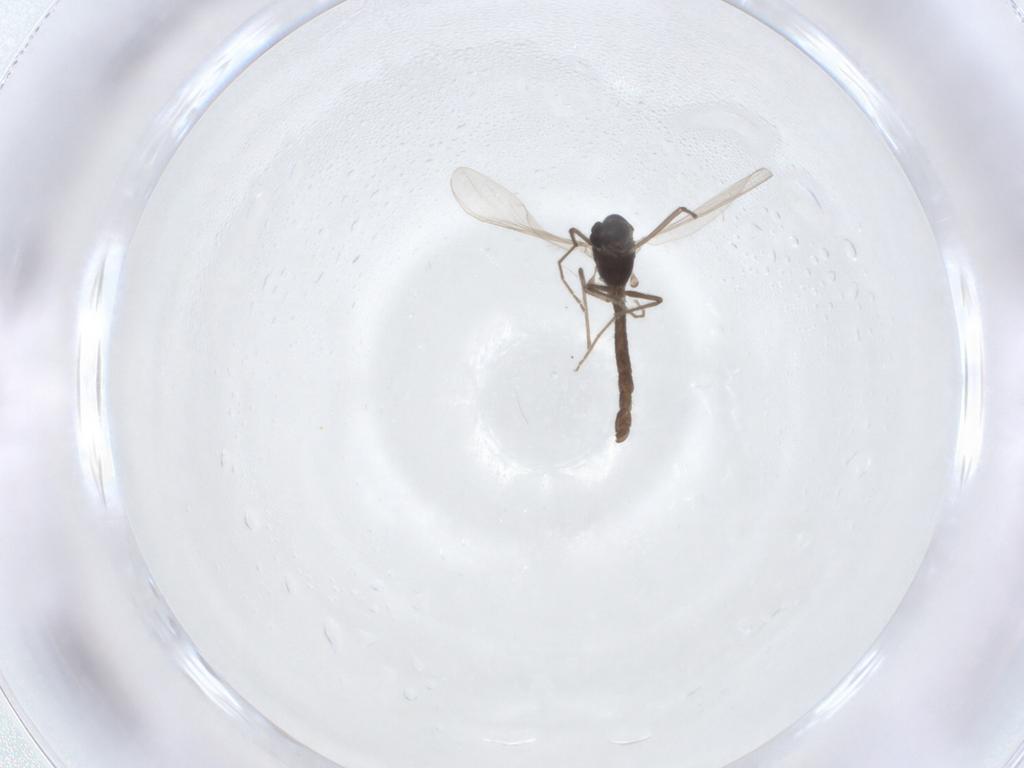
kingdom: Animalia
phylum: Arthropoda
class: Insecta
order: Diptera
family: Chironomidae
